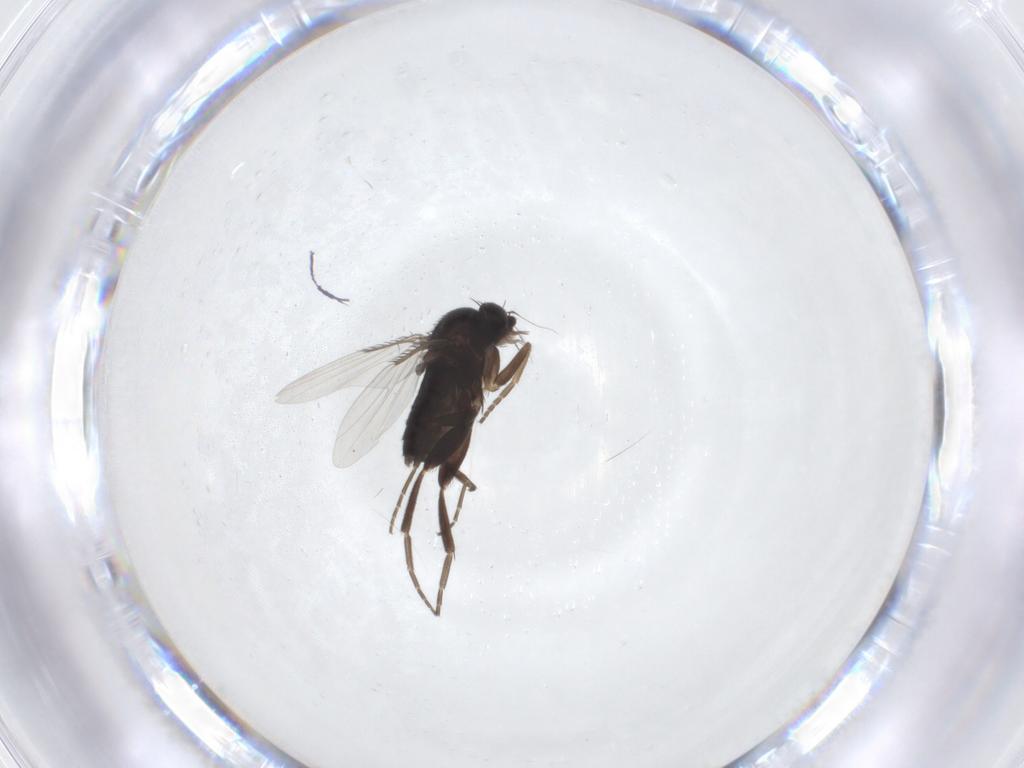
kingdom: Animalia
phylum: Arthropoda
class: Insecta
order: Diptera
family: Phoridae
